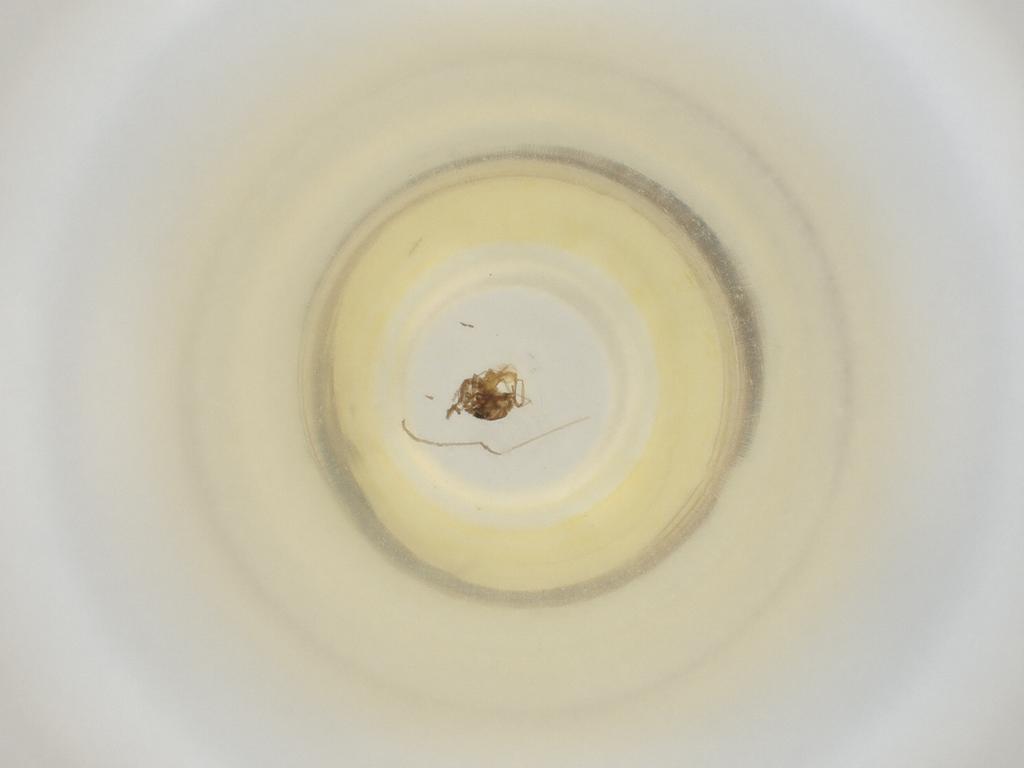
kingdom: Animalia
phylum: Arthropoda
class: Insecta
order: Diptera
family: Cecidomyiidae
